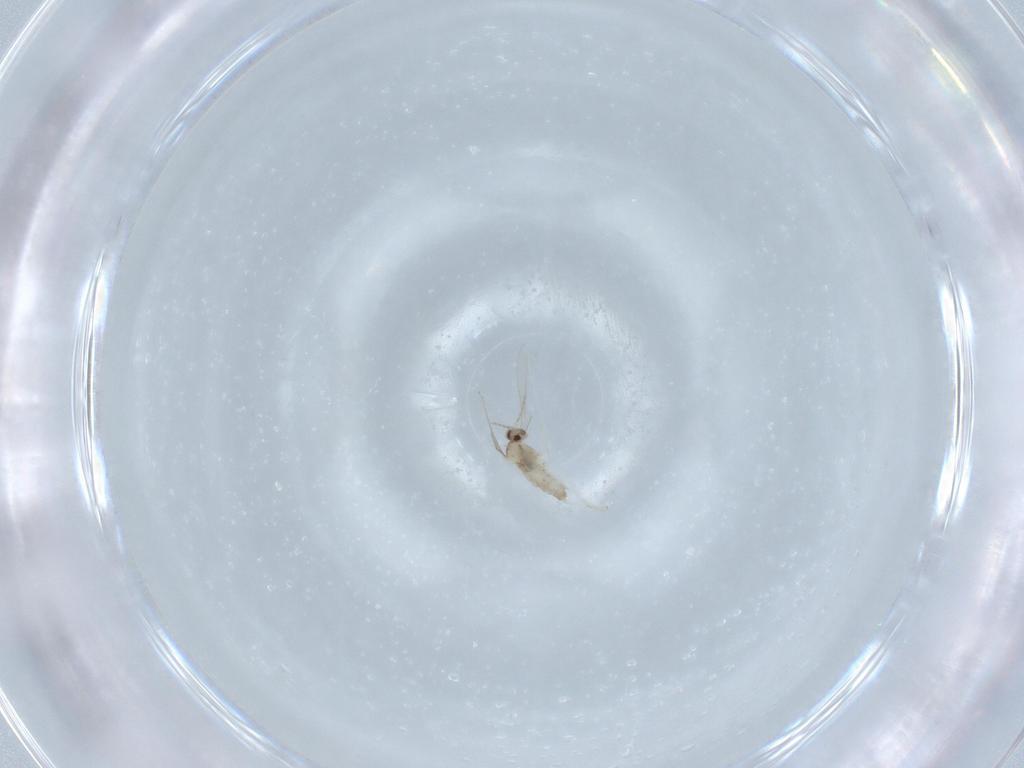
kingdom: Animalia
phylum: Arthropoda
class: Insecta
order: Diptera
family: Cecidomyiidae
